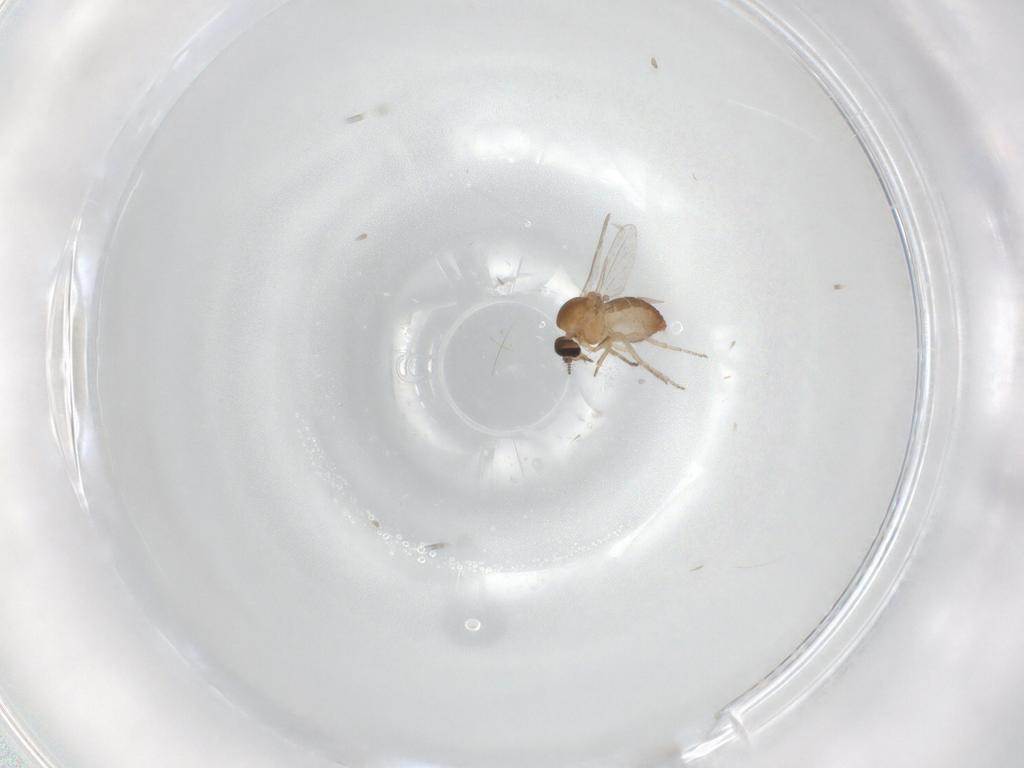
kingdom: Animalia
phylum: Arthropoda
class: Insecta
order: Diptera
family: Ceratopogonidae
